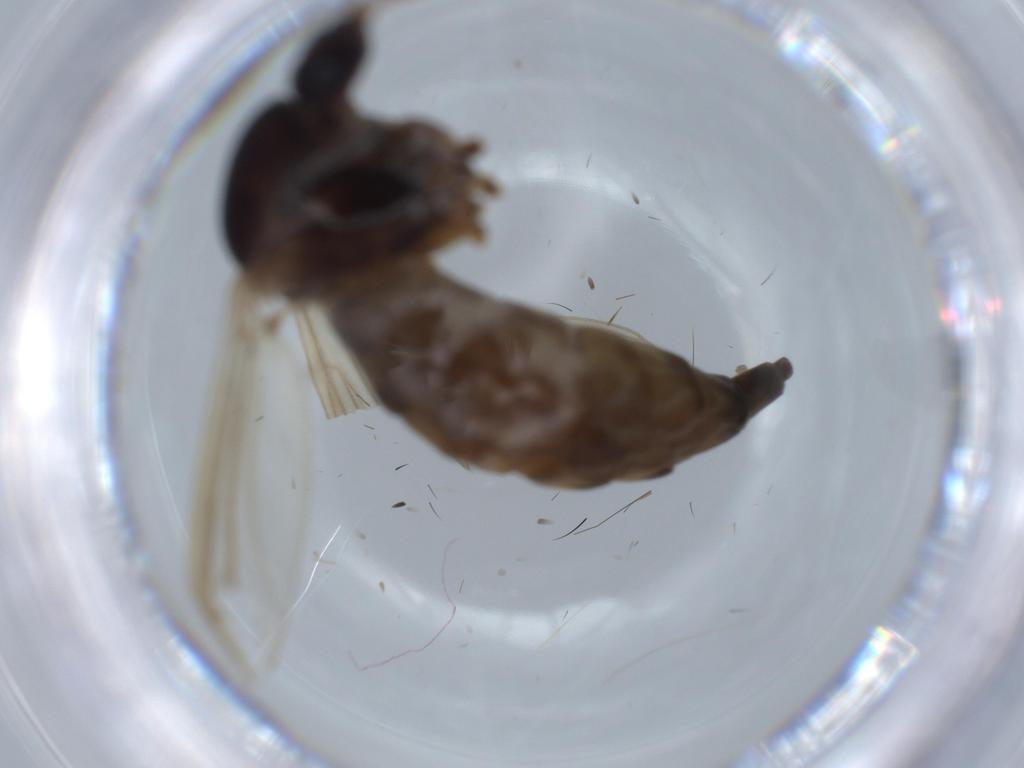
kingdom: Animalia
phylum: Arthropoda
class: Insecta
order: Diptera
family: Culicidae
